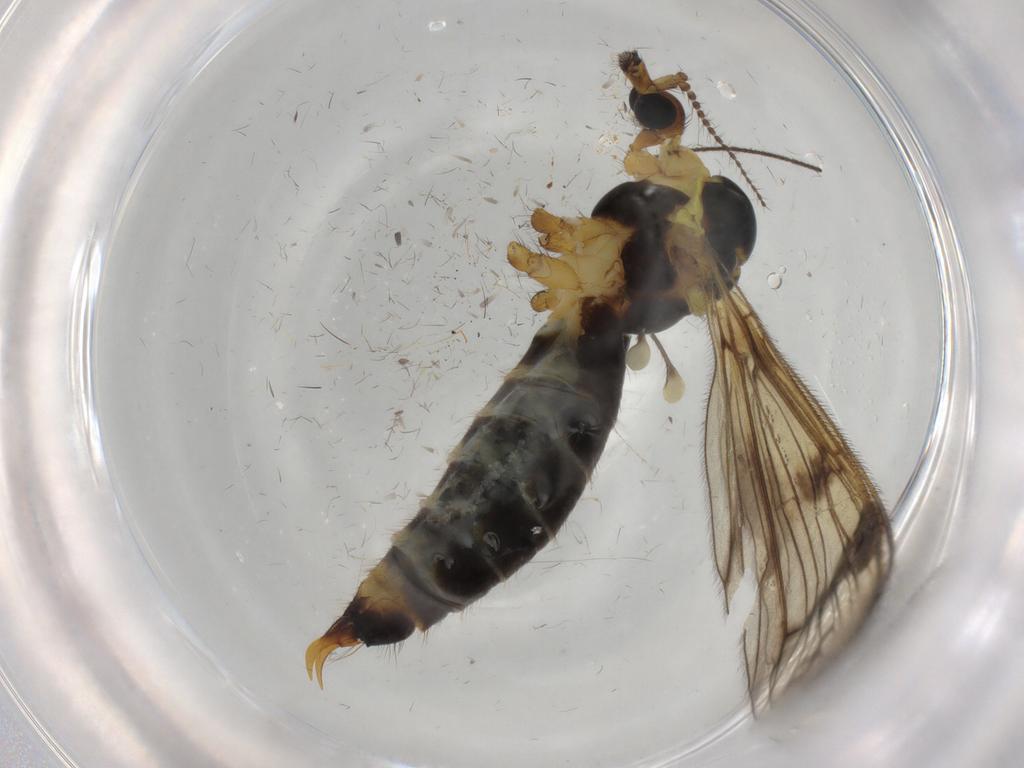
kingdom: Animalia
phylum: Arthropoda
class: Insecta
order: Diptera
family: Limoniidae
